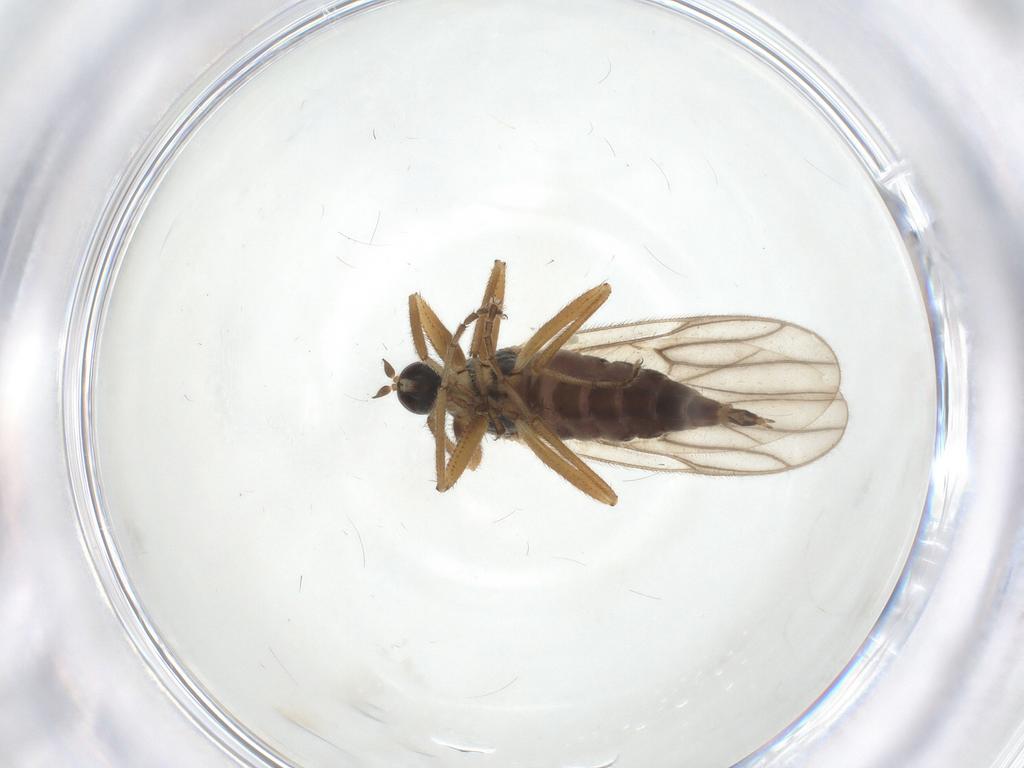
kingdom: Animalia
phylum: Arthropoda
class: Insecta
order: Diptera
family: Hybotidae
